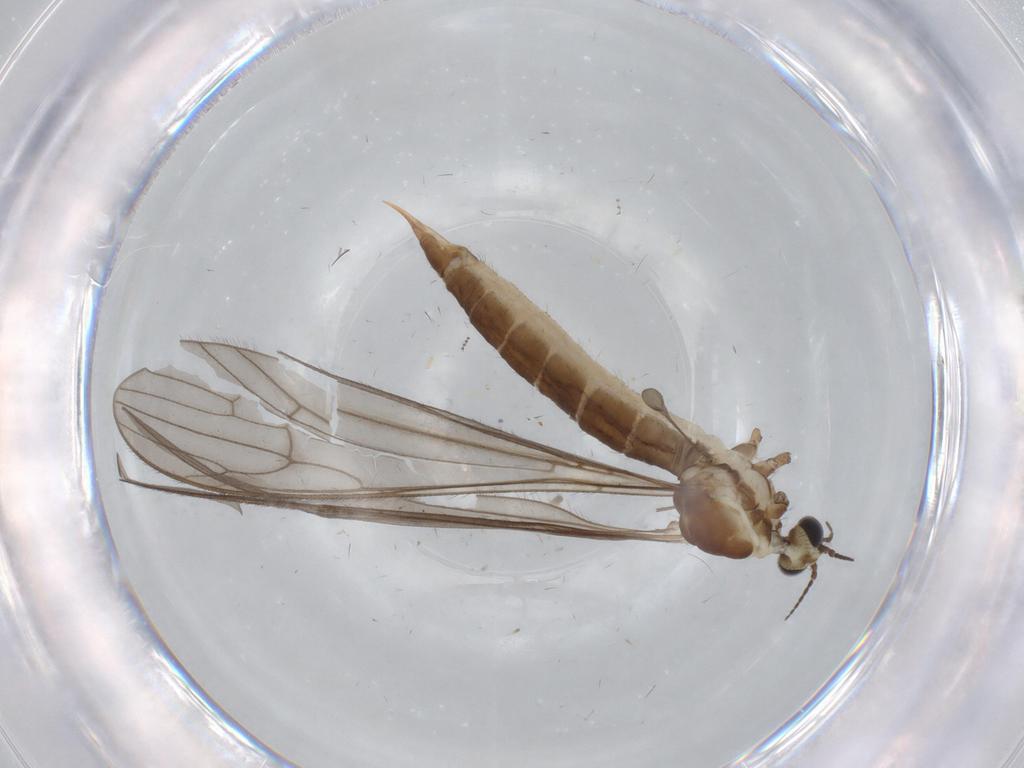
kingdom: Animalia
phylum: Arthropoda
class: Insecta
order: Diptera
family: Limoniidae
